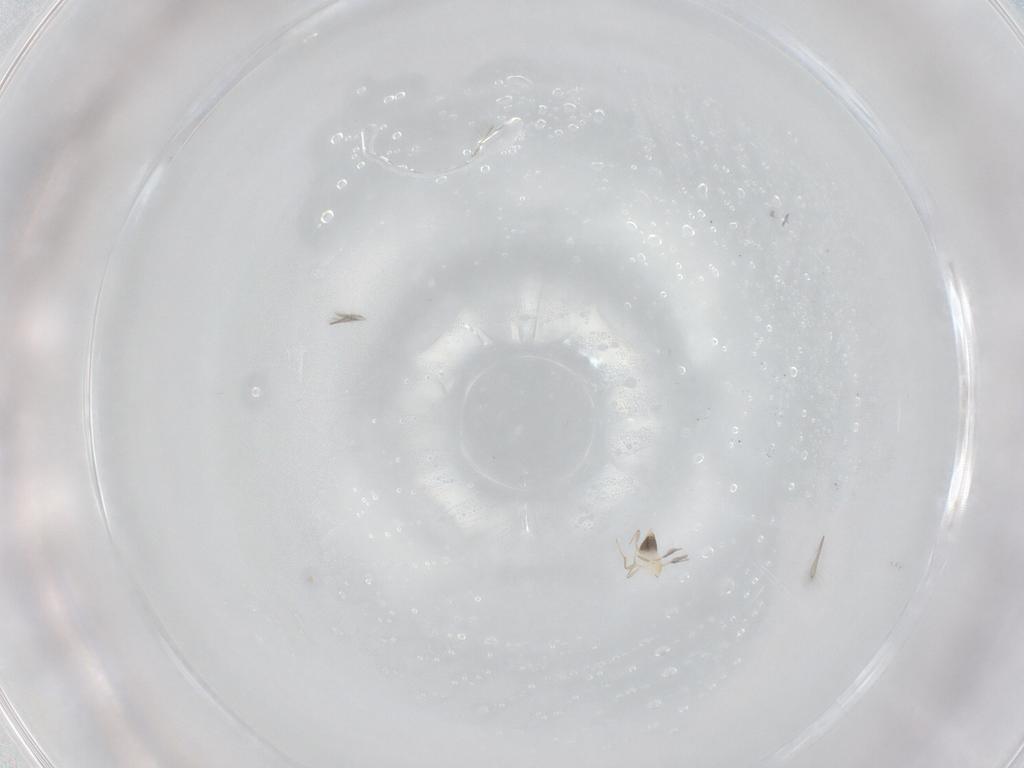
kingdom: Animalia
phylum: Arthropoda
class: Insecta
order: Hymenoptera
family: Mymaridae
